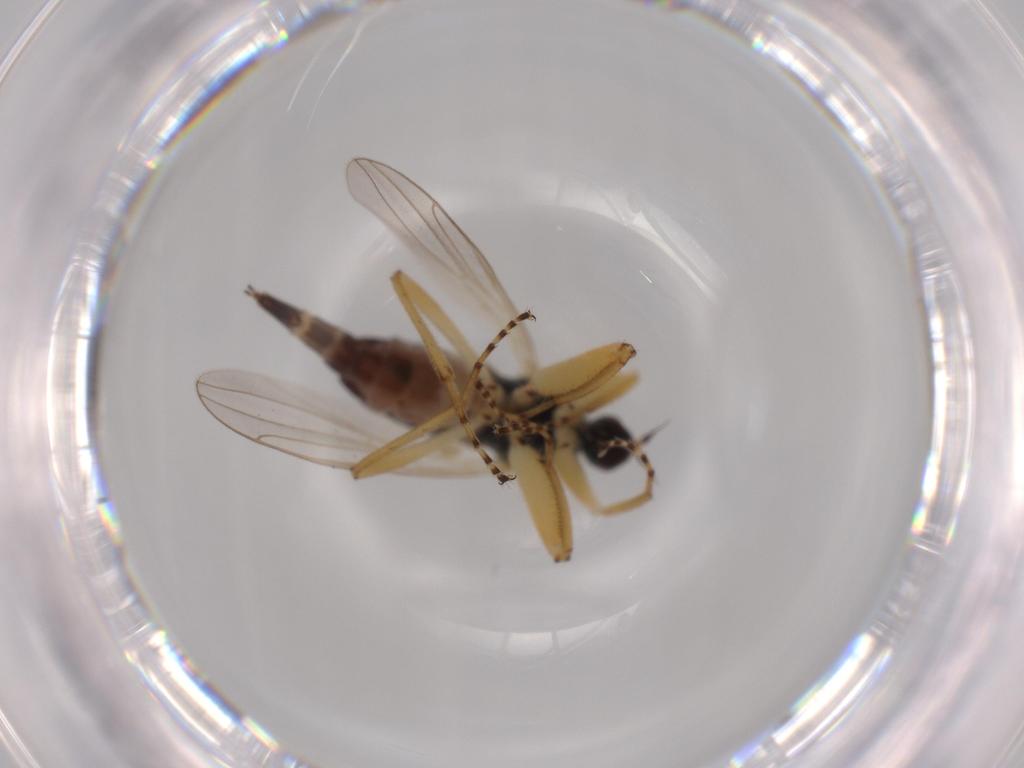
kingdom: Animalia
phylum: Arthropoda
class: Insecta
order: Diptera
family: Hybotidae
